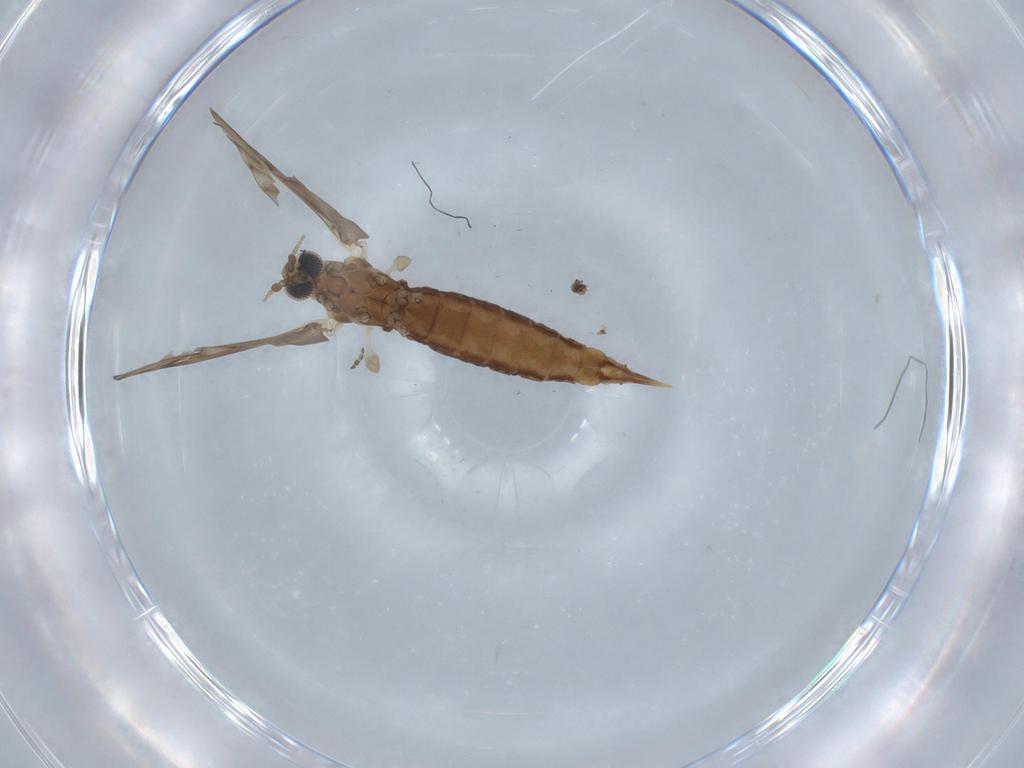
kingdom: Animalia
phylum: Arthropoda
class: Insecta
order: Diptera
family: Limoniidae
